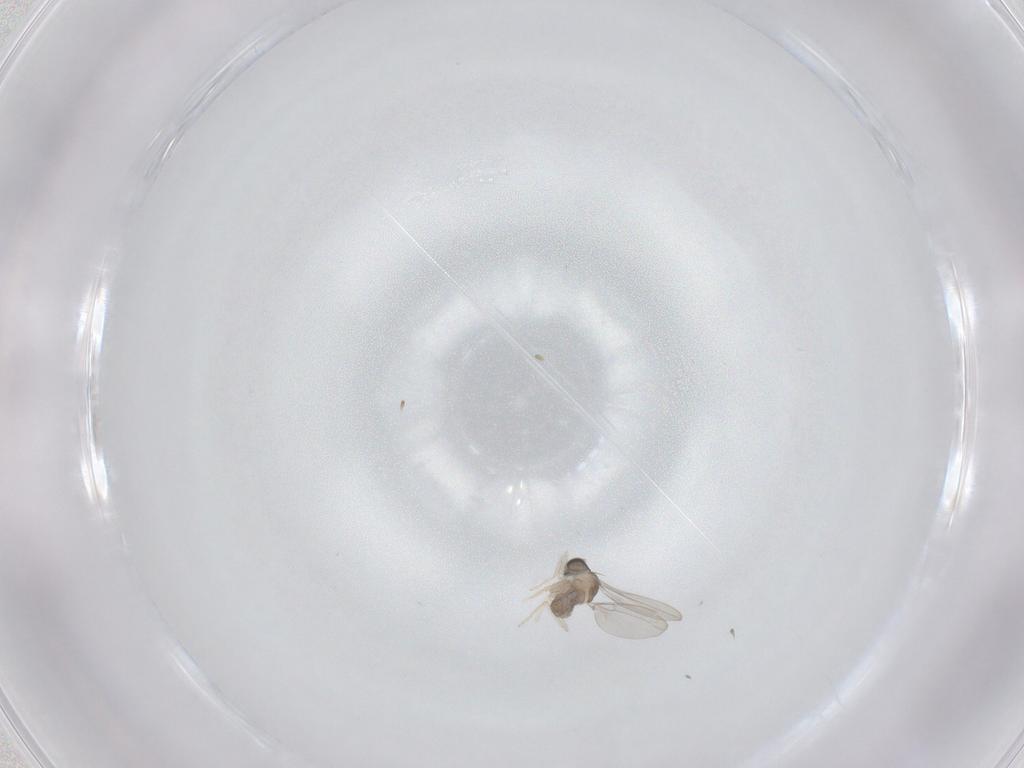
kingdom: Animalia
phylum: Arthropoda
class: Insecta
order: Diptera
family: Cecidomyiidae
